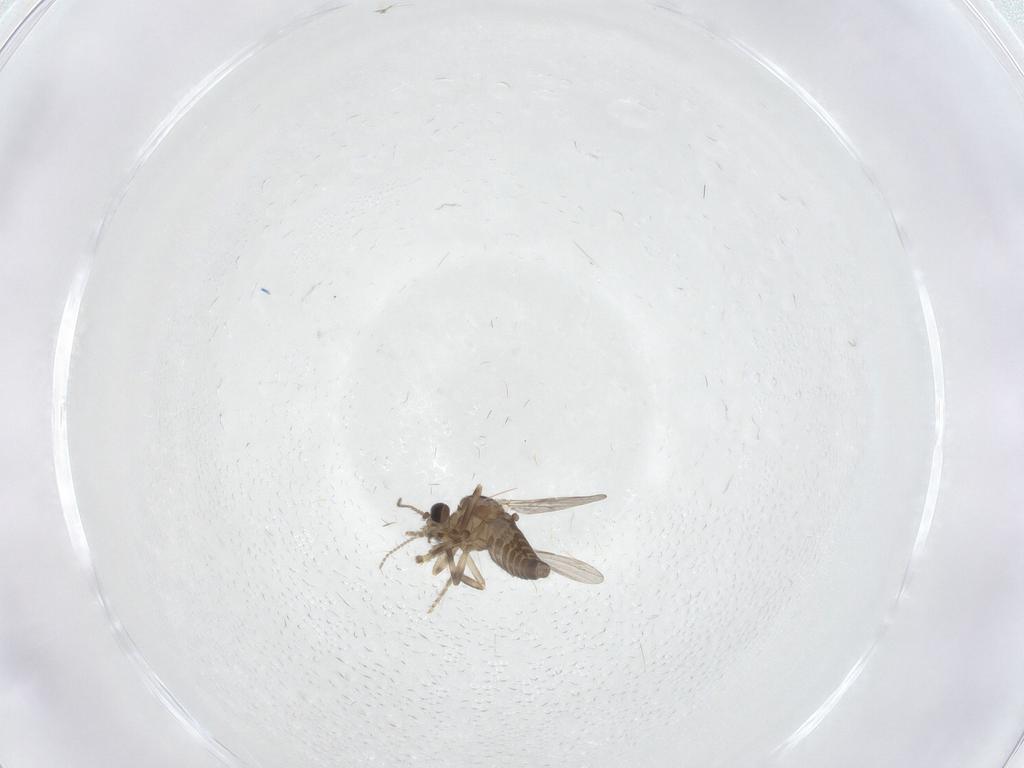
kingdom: Animalia
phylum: Arthropoda
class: Insecta
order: Diptera
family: Ceratopogonidae
